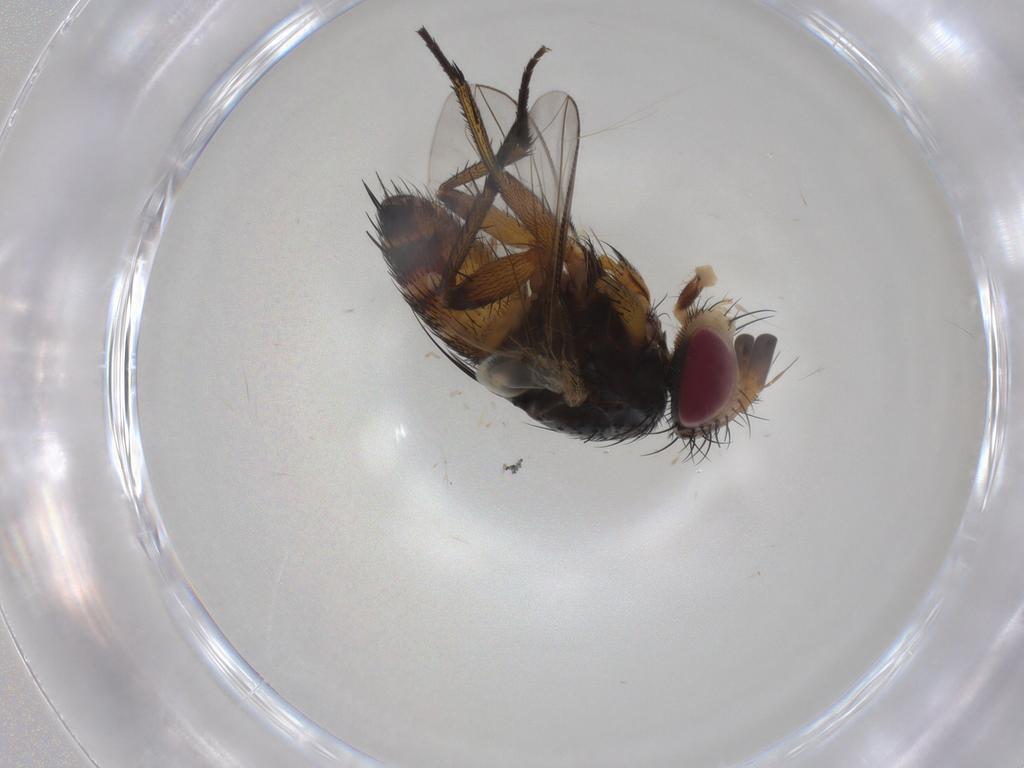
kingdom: Animalia
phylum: Arthropoda
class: Insecta
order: Diptera
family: Tachinidae
